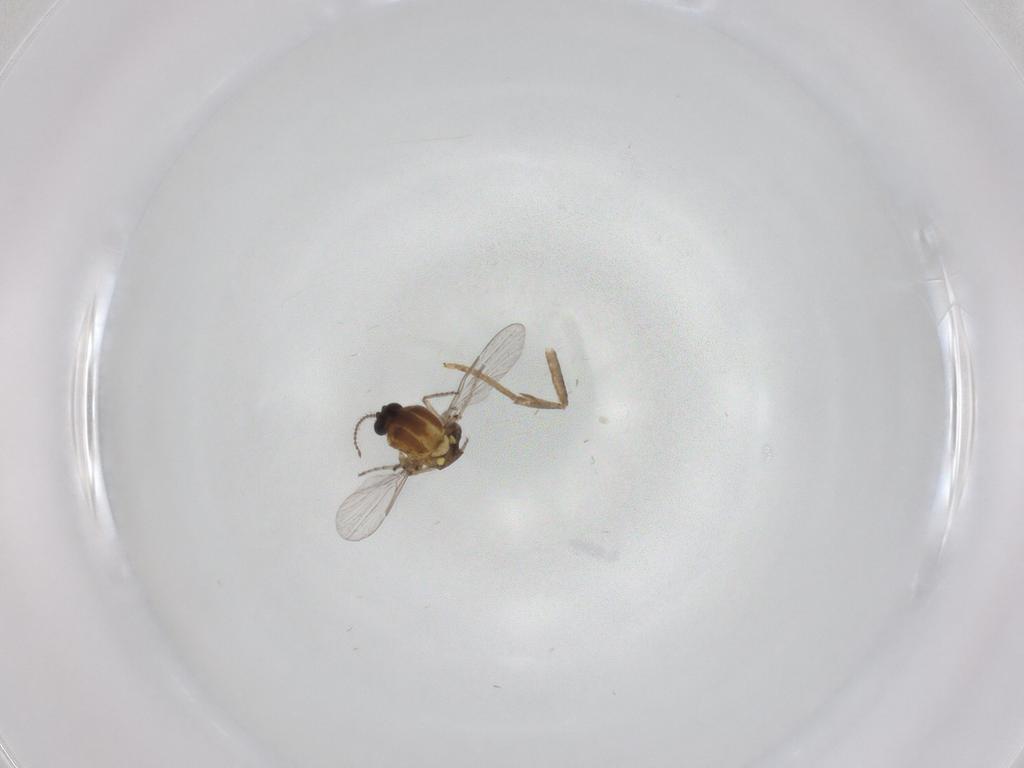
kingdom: Animalia
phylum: Arthropoda
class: Insecta
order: Diptera
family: Ceratopogonidae
